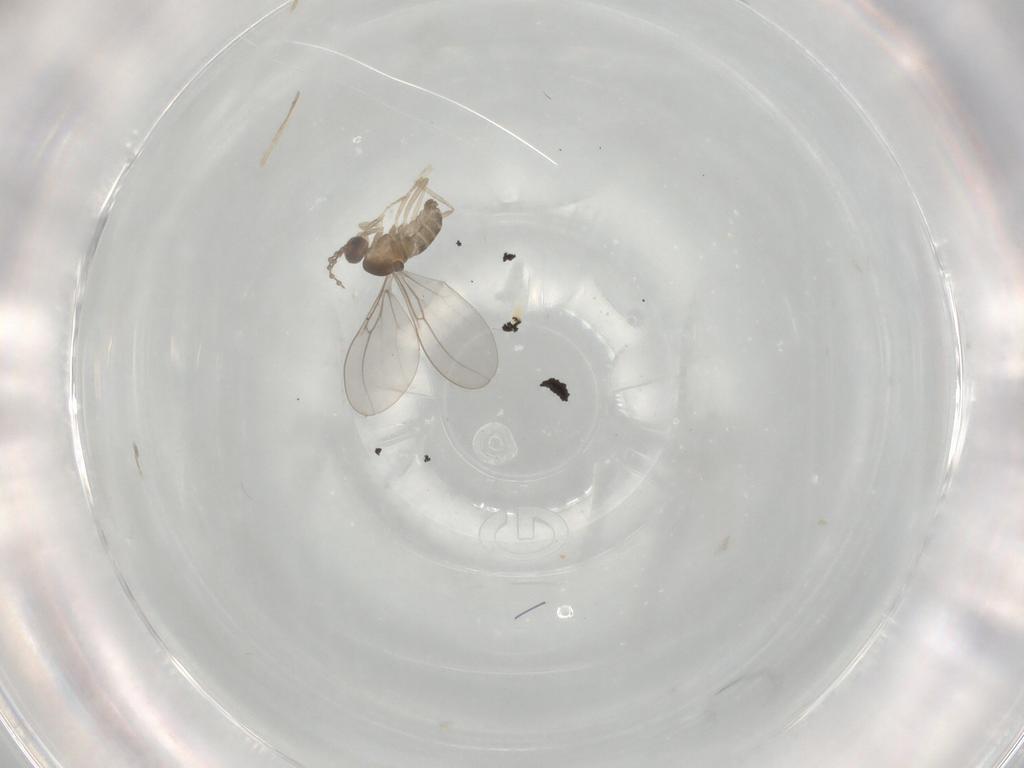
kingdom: Animalia
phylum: Arthropoda
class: Insecta
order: Diptera
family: Chironomidae
